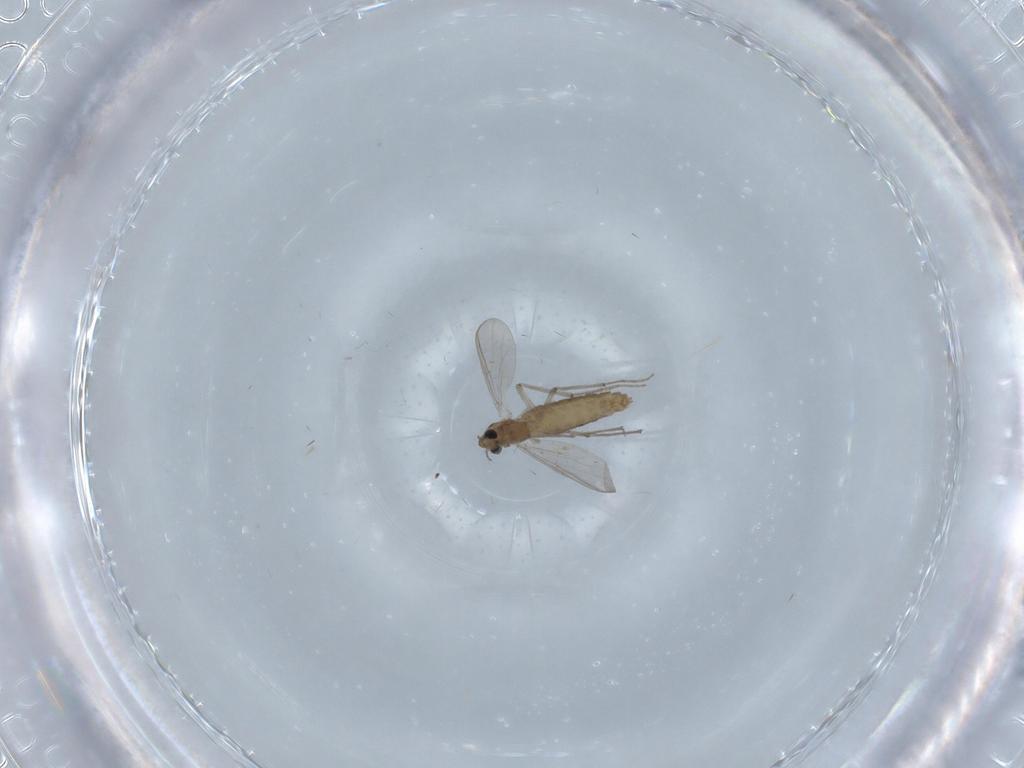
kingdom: Animalia
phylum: Arthropoda
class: Insecta
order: Diptera
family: Sciaridae
